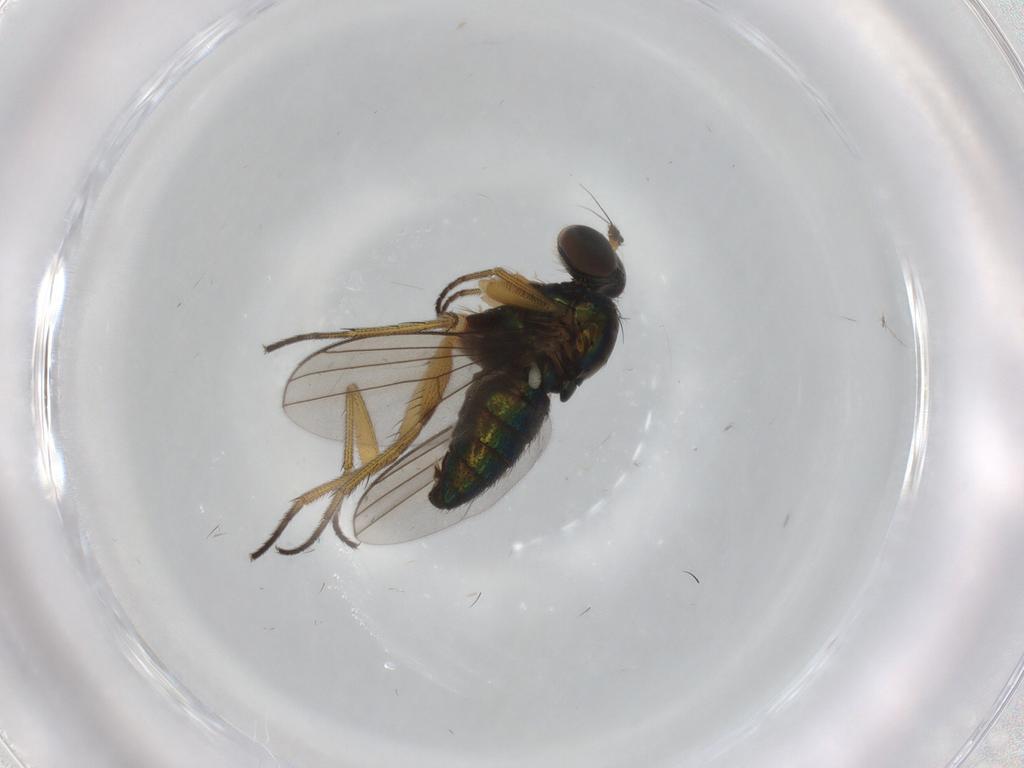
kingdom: Animalia
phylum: Arthropoda
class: Insecta
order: Diptera
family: Dolichopodidae
